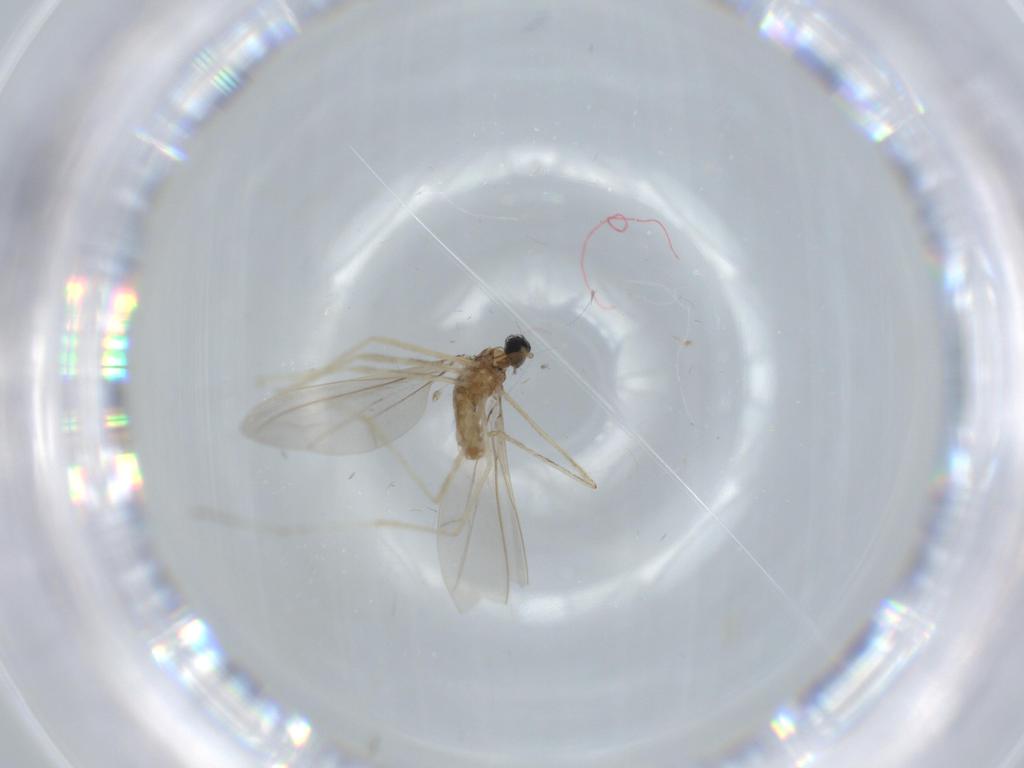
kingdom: Animalia
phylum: Arthropoda
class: Insecta
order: Diptera
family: Cecidomyiidae
